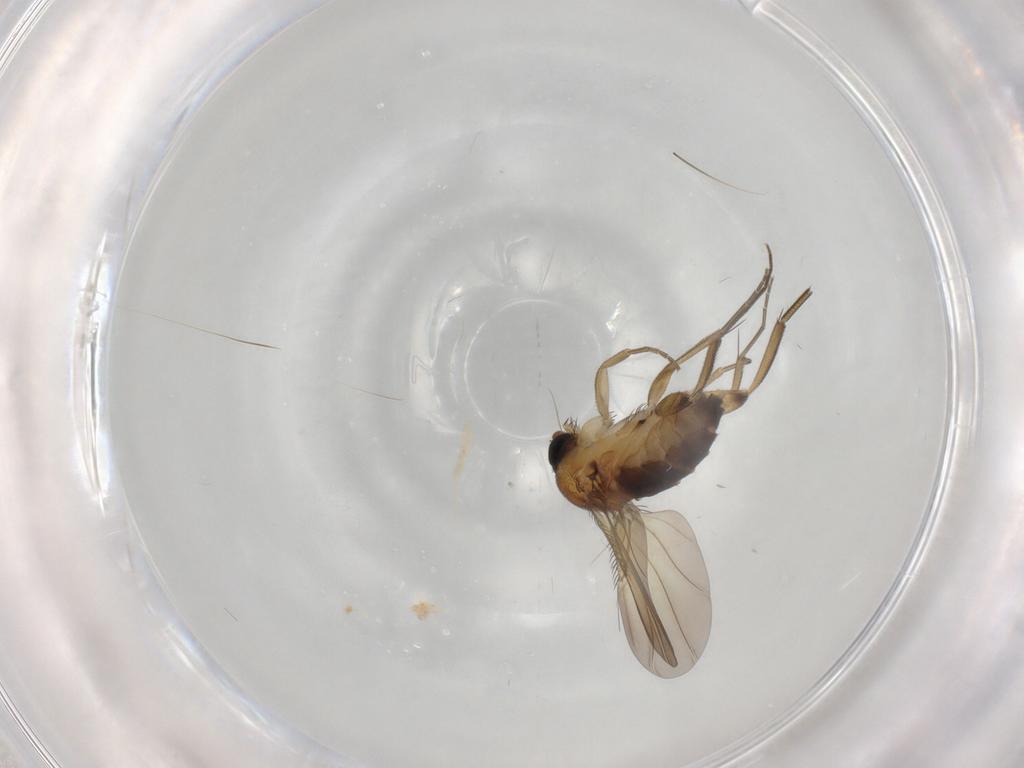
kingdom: Animalia
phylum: Arthropoda
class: Insecta
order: Diptera
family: Phoridae
